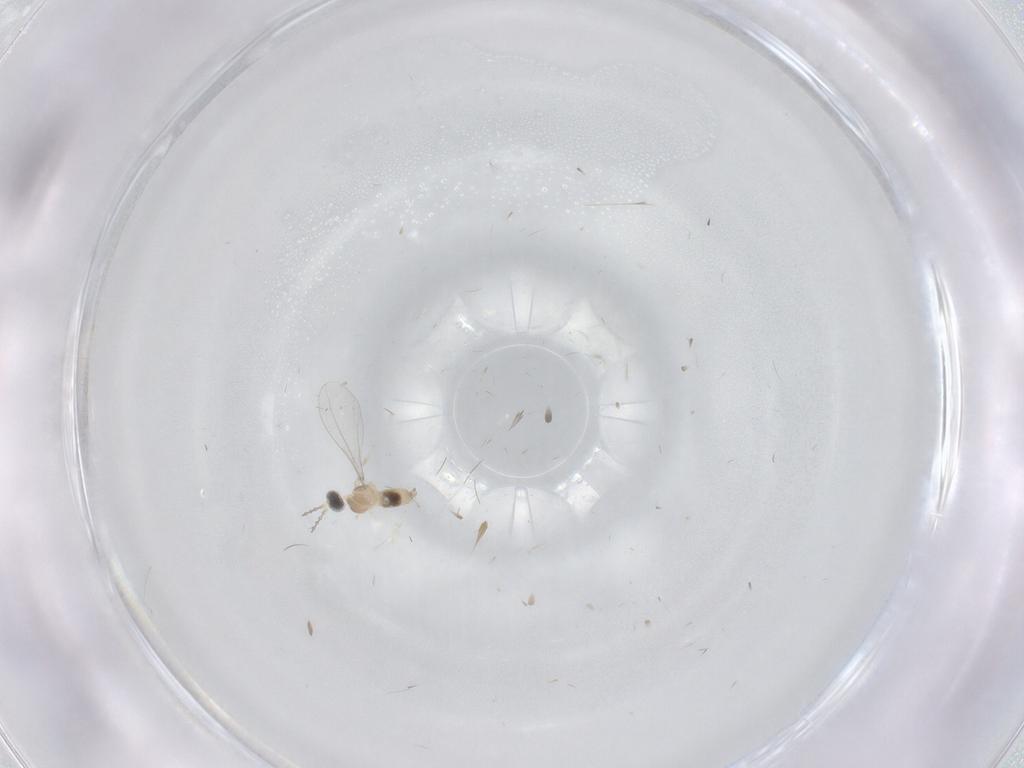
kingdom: Animalia
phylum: Arthropoda
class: Insecta
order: Diptera
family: Cecidomyiidae
